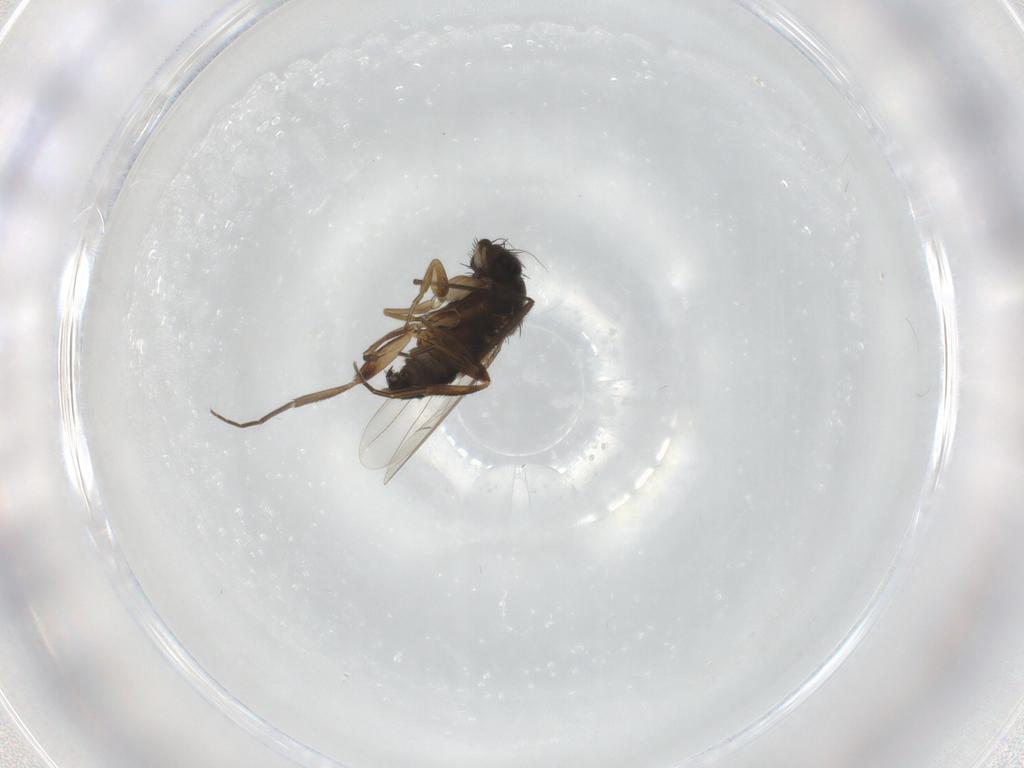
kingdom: Animalia
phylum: Arthropoda
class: Insecta
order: Diptera
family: Phoridae
